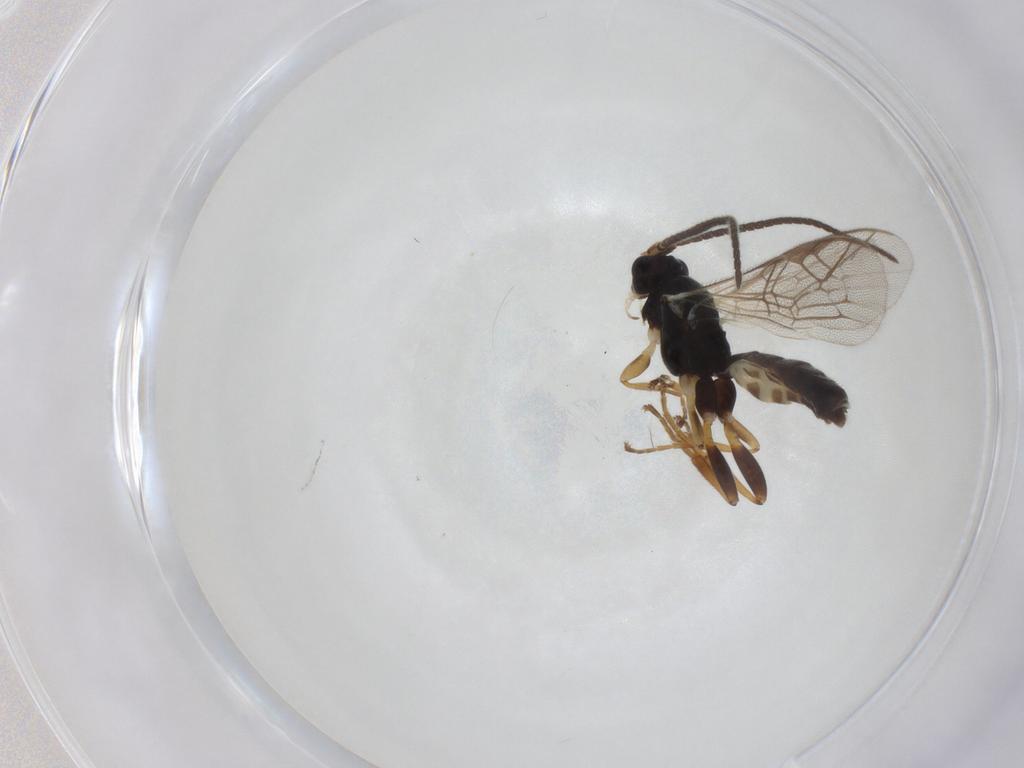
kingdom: Animalia
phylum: Arthropoda
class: Insecta
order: Hymenoptera
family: Ichneumonidae
